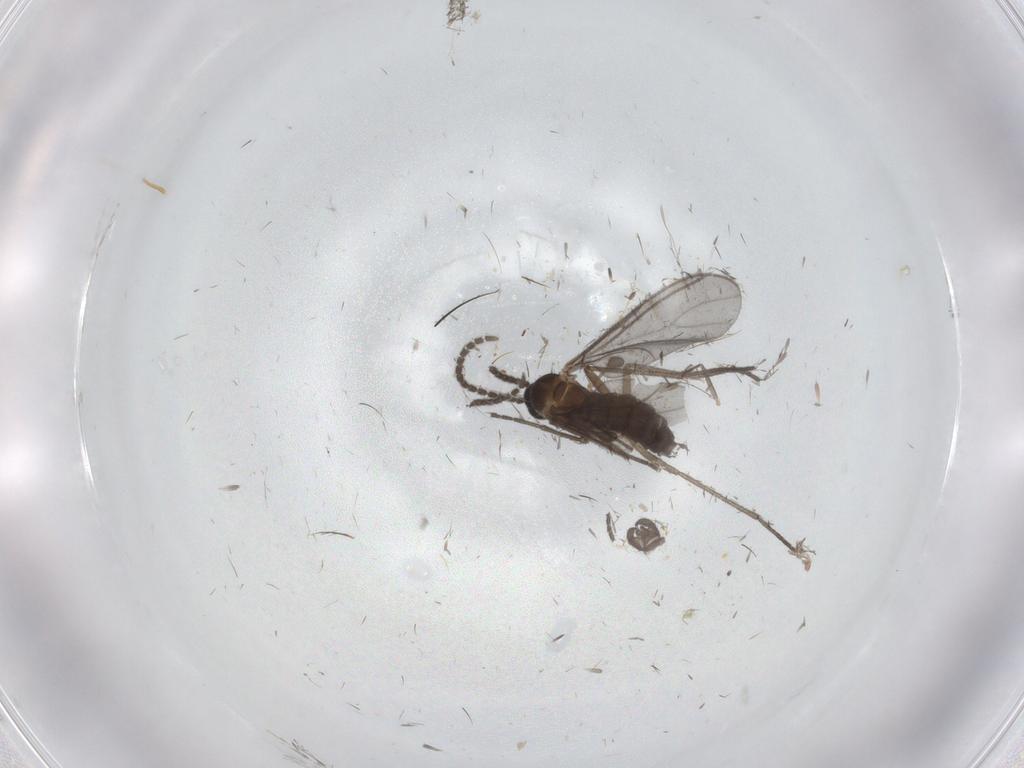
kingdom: Animalia
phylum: Arthropoda
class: Insecta
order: Diptera
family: Sciaridae
